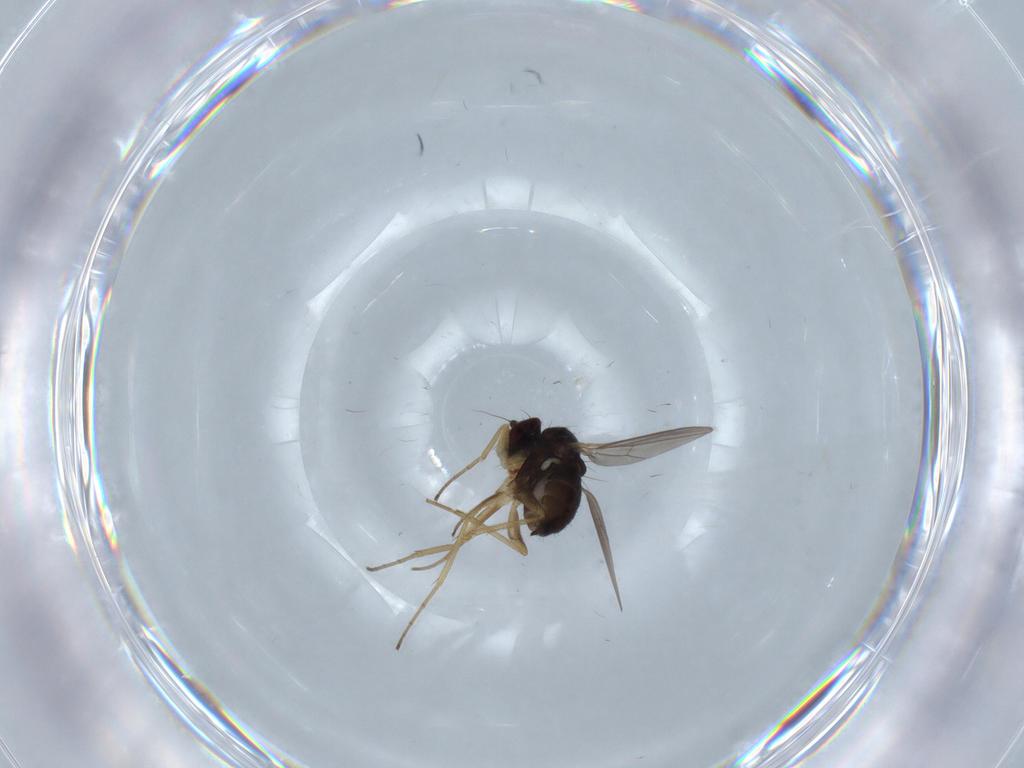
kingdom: Animalia
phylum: Arthropoda
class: Insecta
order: Diptera
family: Dolichopodidae
